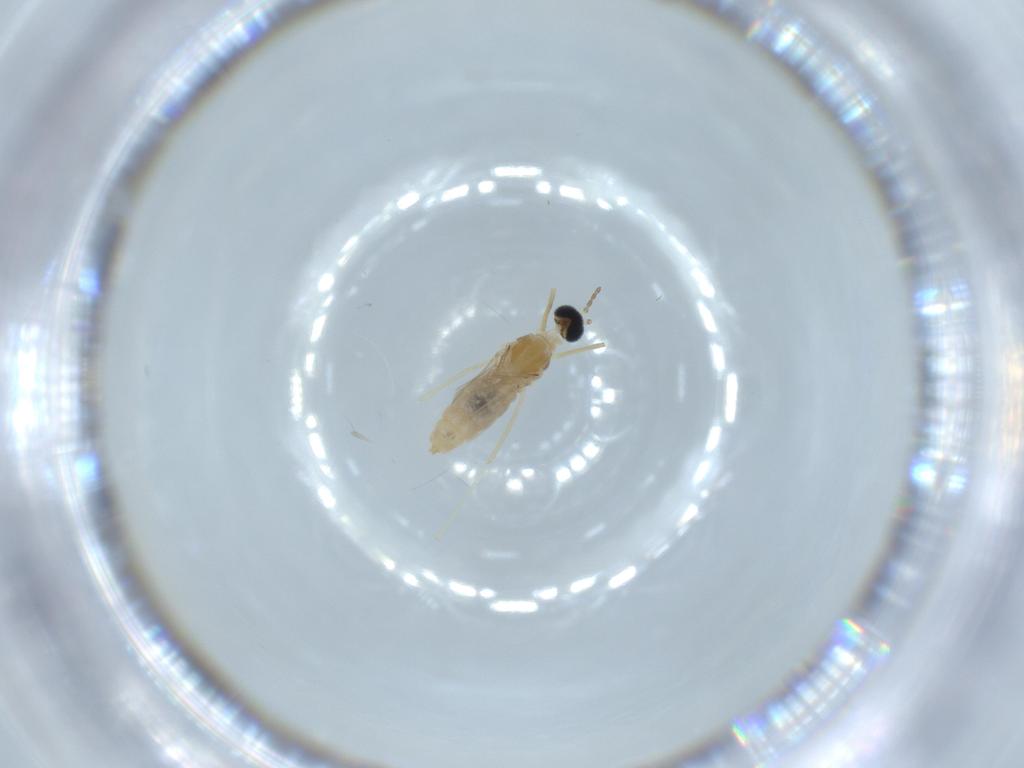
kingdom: Animalia
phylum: Arthropoda
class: Insecta
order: Diptera
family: Cecidomyiidae
